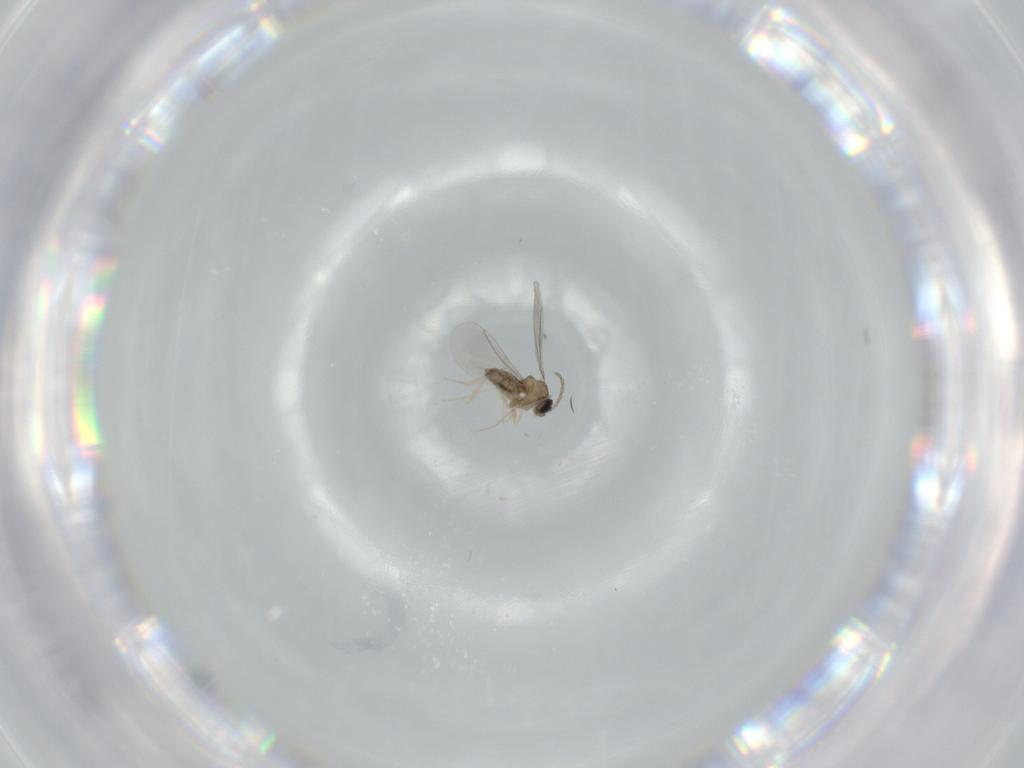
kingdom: Animalia
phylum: Arthropoda
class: Insecta
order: Diptera
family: Cecidomyiidae
